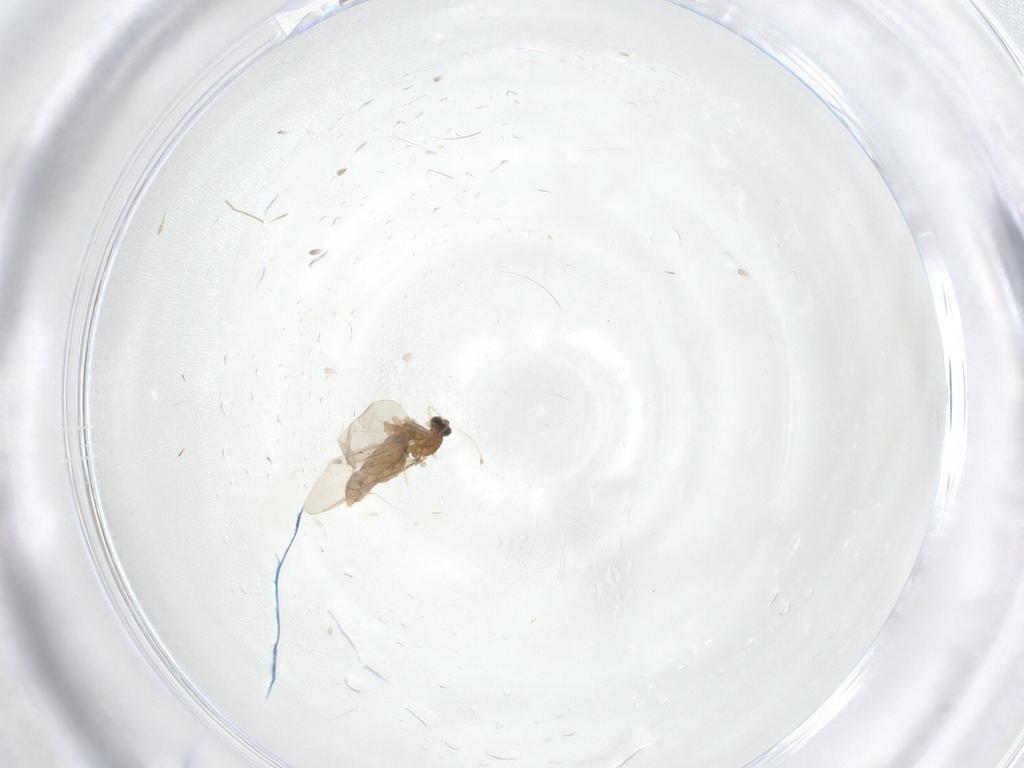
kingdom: Animalia
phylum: Arthropoda
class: Insecta
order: Diptera
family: Cecidomyiidae
